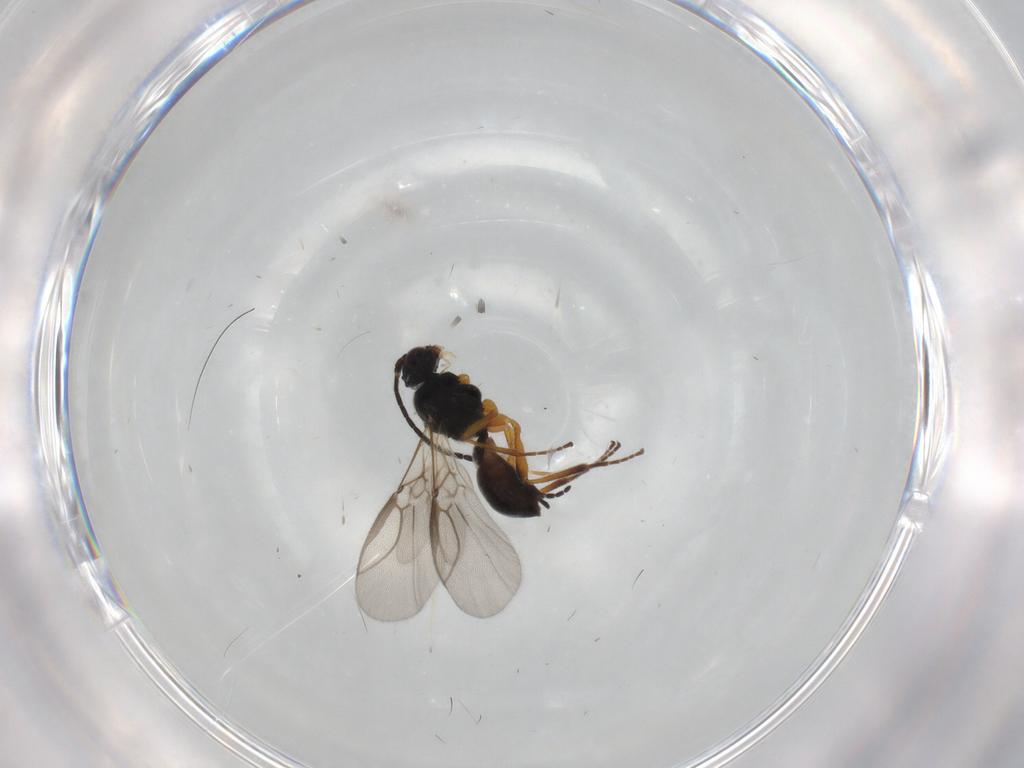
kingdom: Animalia
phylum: Arthropoda
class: Insecta
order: Hymenoptera
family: Braconidae
